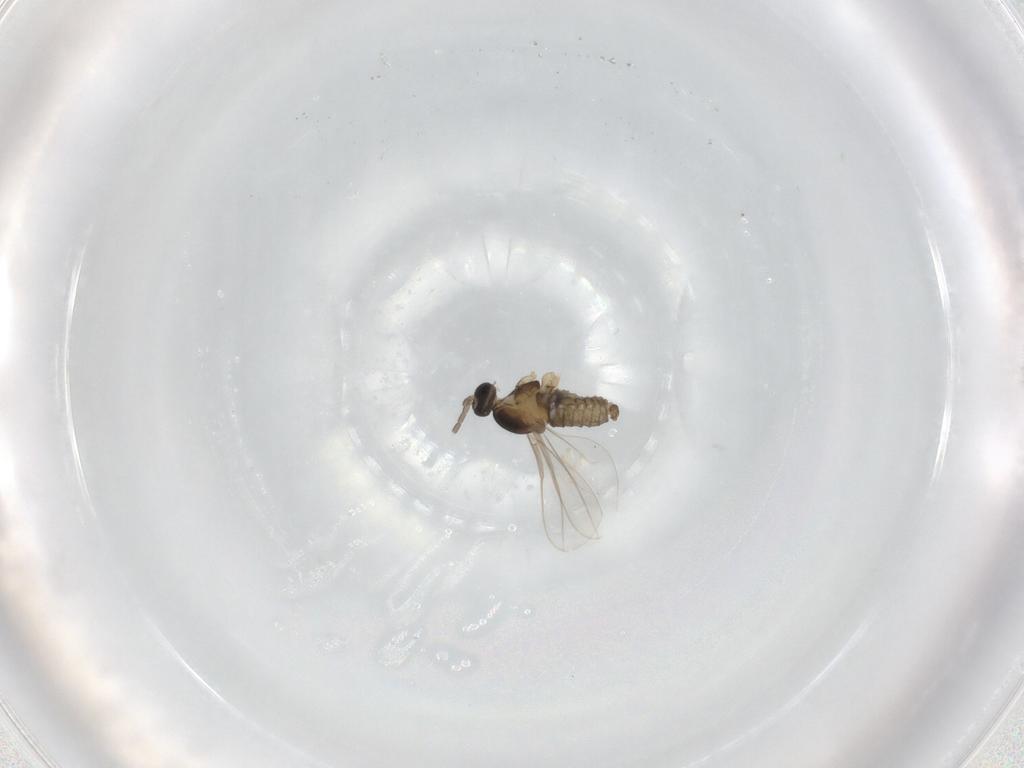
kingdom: Animalia
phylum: Arthropoda
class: Insecta
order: Diptera
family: Cecidomyiidae
